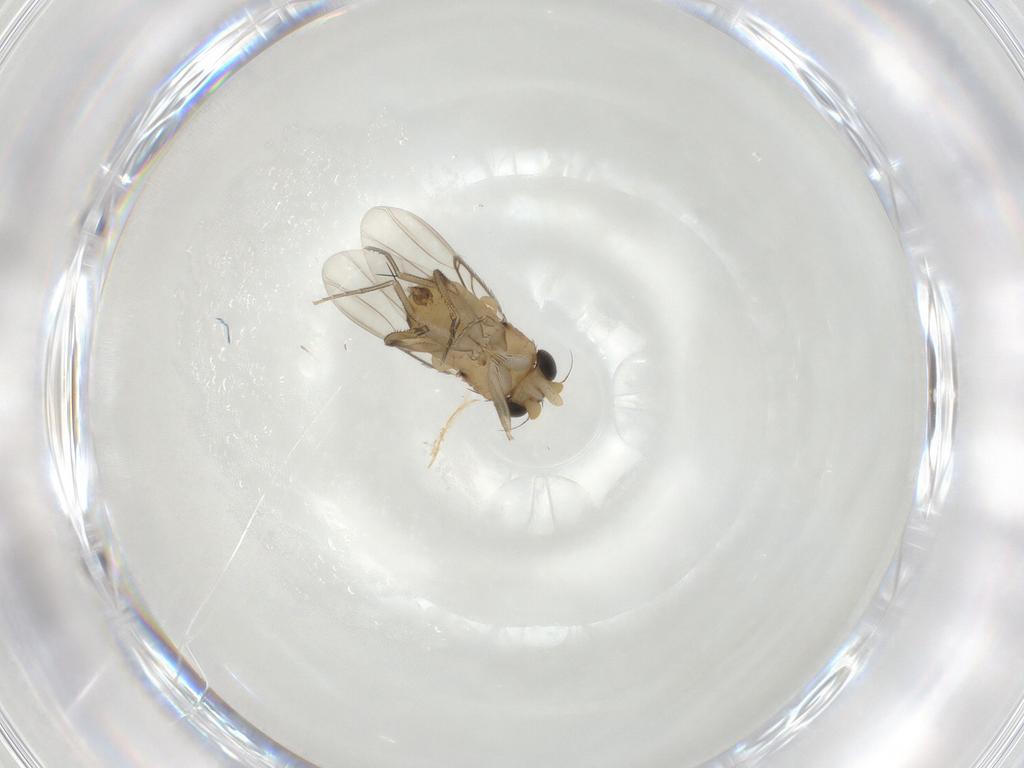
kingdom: Animalia
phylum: Arthropoda
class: Insecta
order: Diptera
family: Phoridae
